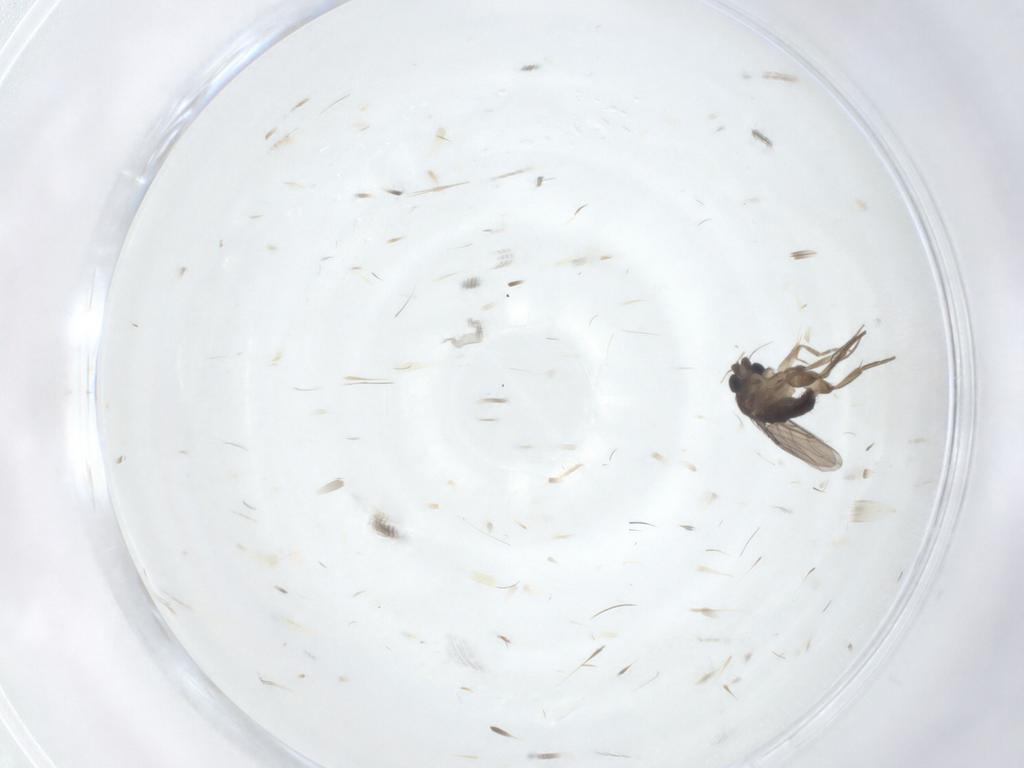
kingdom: Animalia
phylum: Arthropoda
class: Insecta
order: Diptera
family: Phoridae
